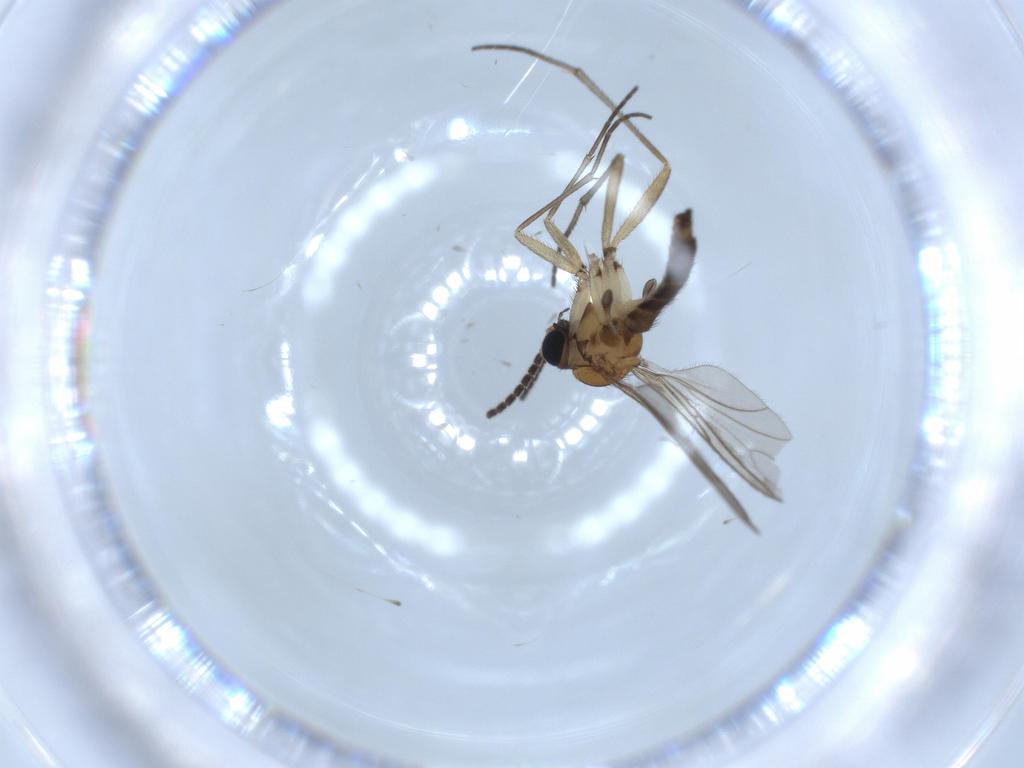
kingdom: Animalia
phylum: Arthropoda
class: Insecta
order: Diptera
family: Sciaridae
